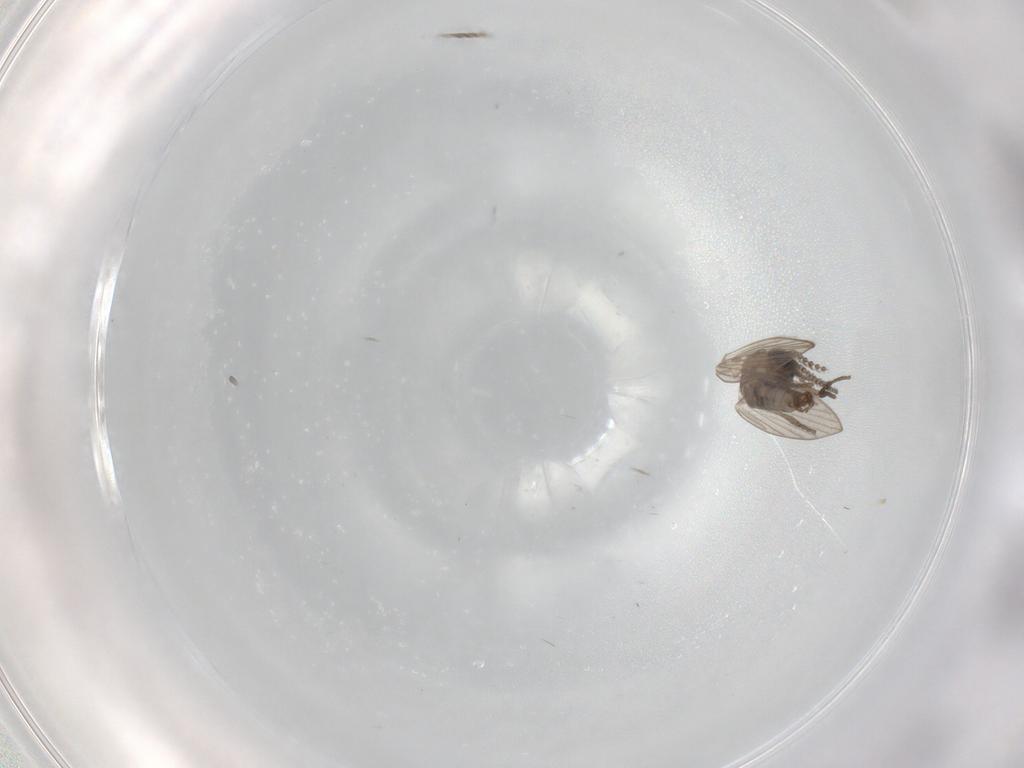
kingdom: Animalia
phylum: Arthropoda
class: Insecta
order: Diptera
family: Psychodidae
